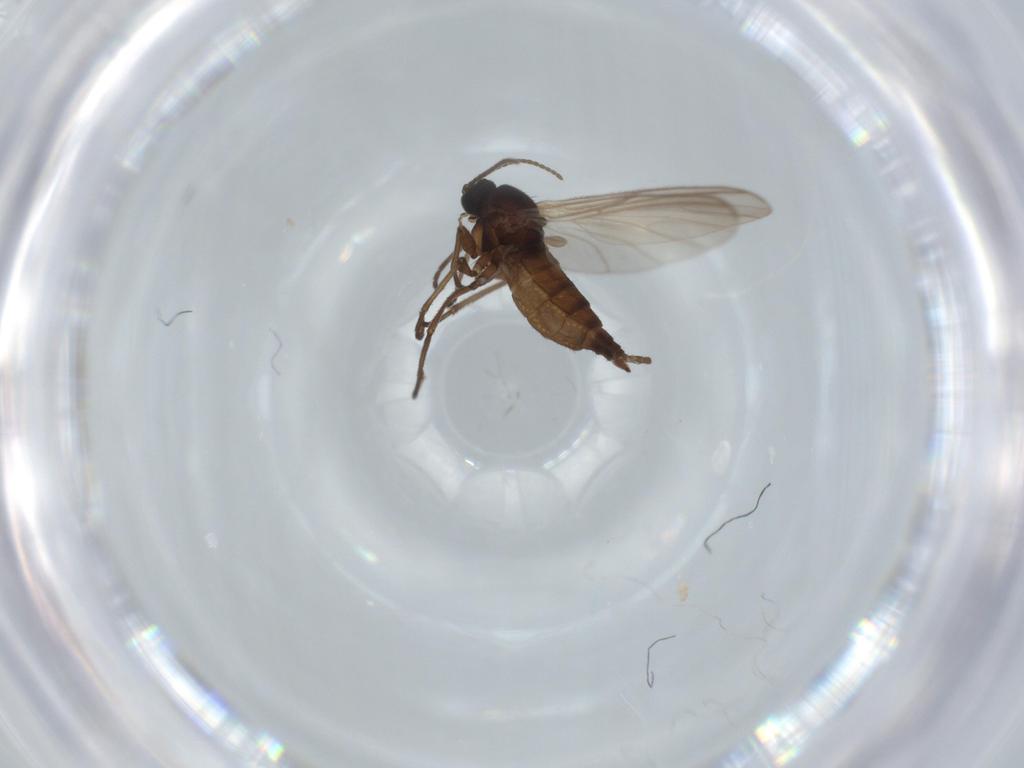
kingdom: Animalia
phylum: Arthropoda
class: Insecta
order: Diptera
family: Sciaridae
